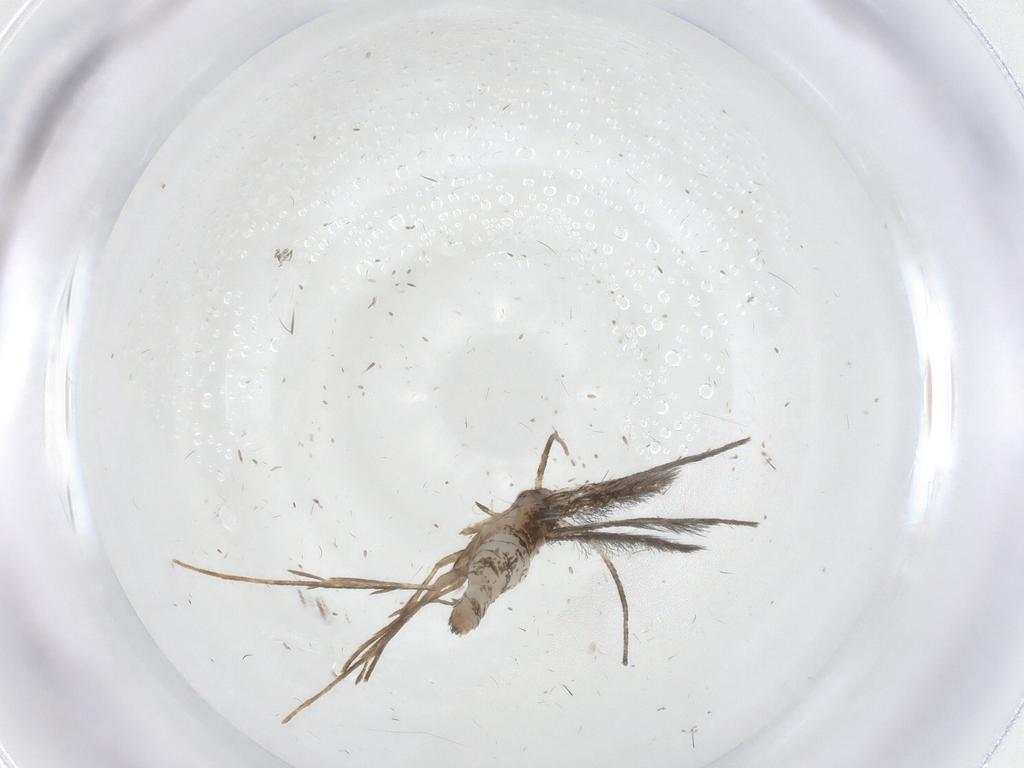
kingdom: Animalia
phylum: Arthropoda
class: Insecta
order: Lepidoptera
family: Gracillariidae
